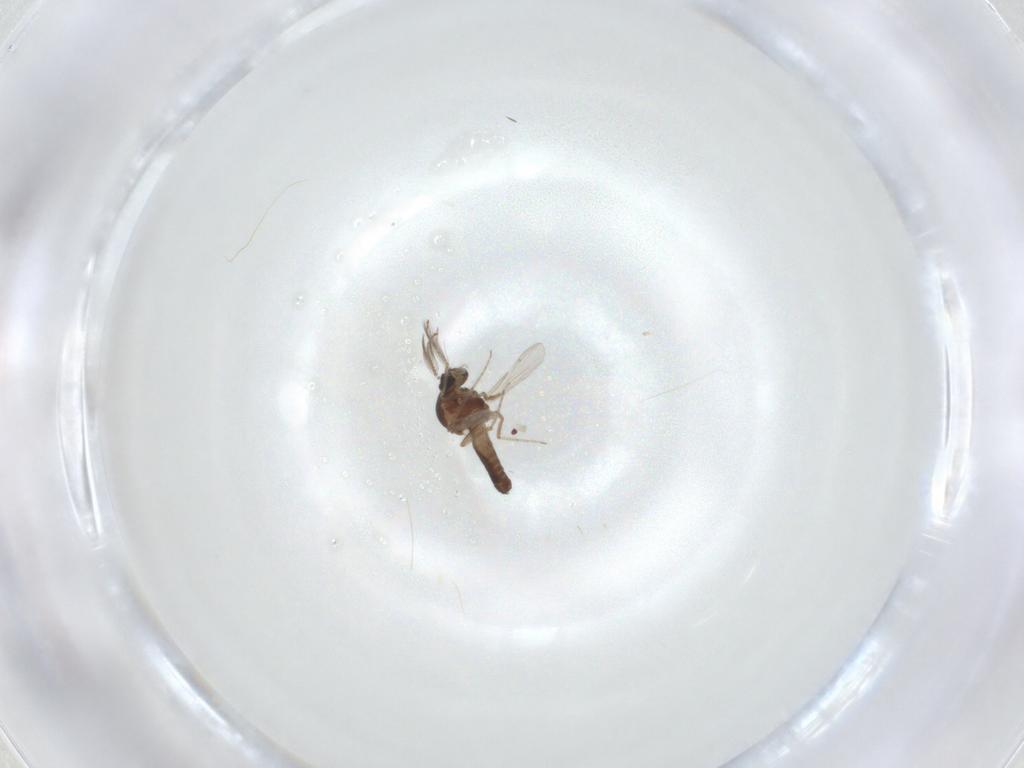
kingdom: Animalia
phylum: Arthropoda
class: Insecta
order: Diptera
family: Ceratopogonidae
